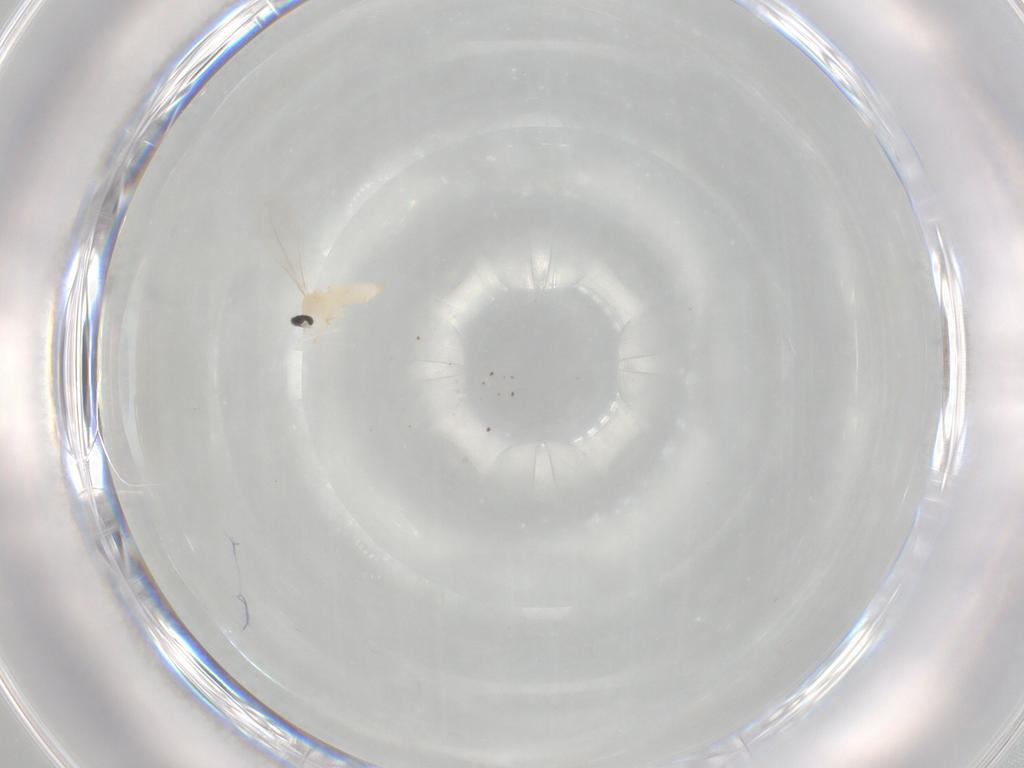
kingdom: Animalia
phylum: Arthropoda
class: Insecta
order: Diptera
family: Cecidomyiidae
